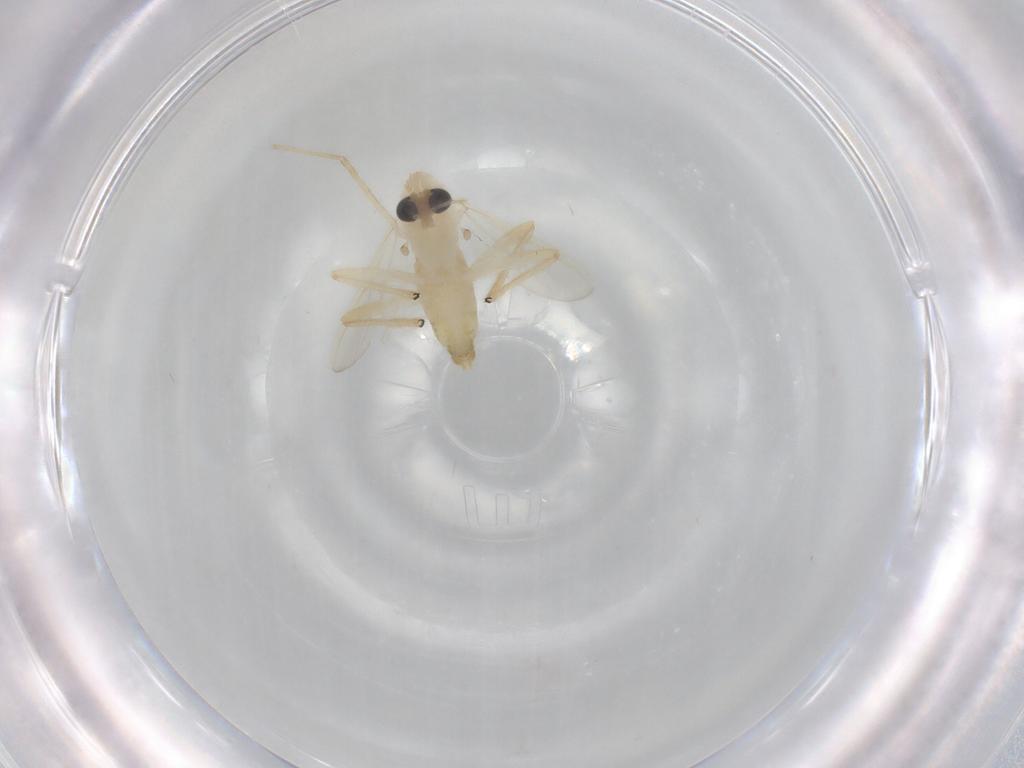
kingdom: Animalia
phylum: Arthropoda
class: Insecta
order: Diptera
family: Chironomidae
